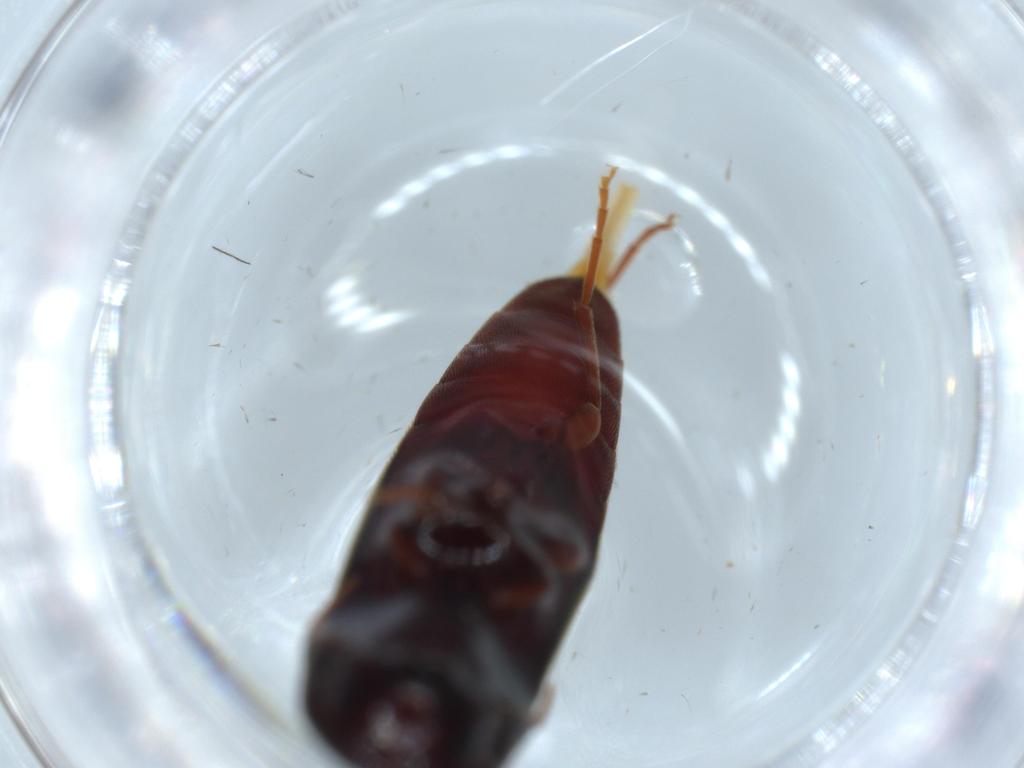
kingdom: Animalia
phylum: Arthropoda
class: Insecta
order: Coleoptera
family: Eucnemidae
